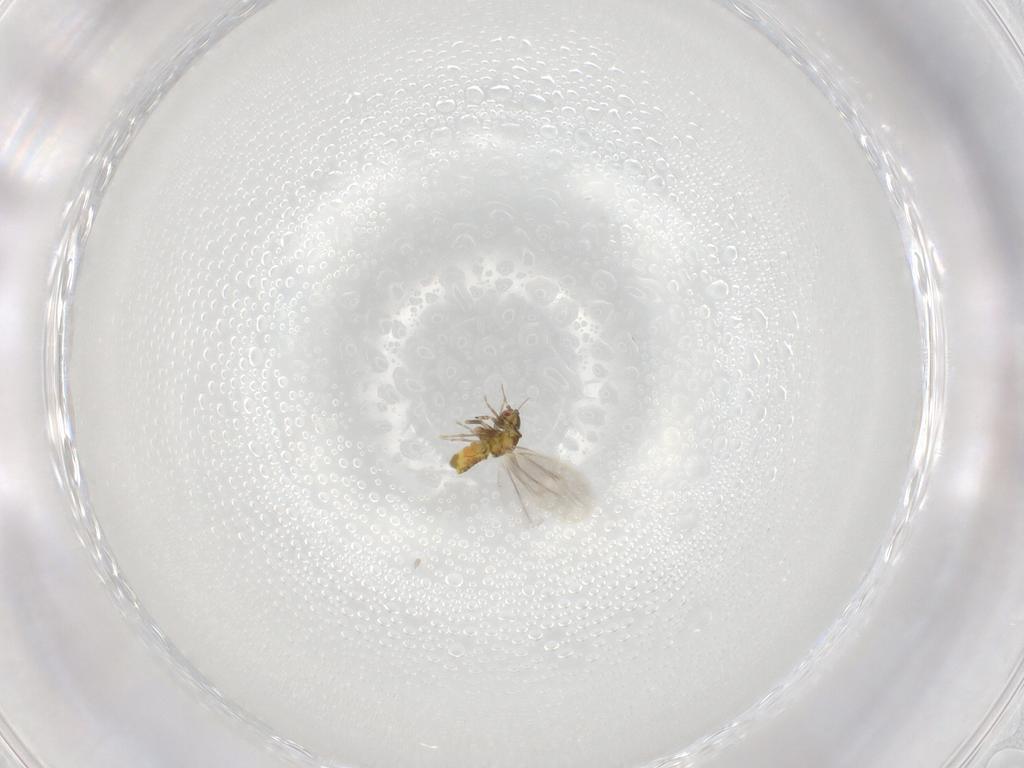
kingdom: Animalia
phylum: Arthropoda
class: Insecta
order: Hemiptera
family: Aleyrodidae
